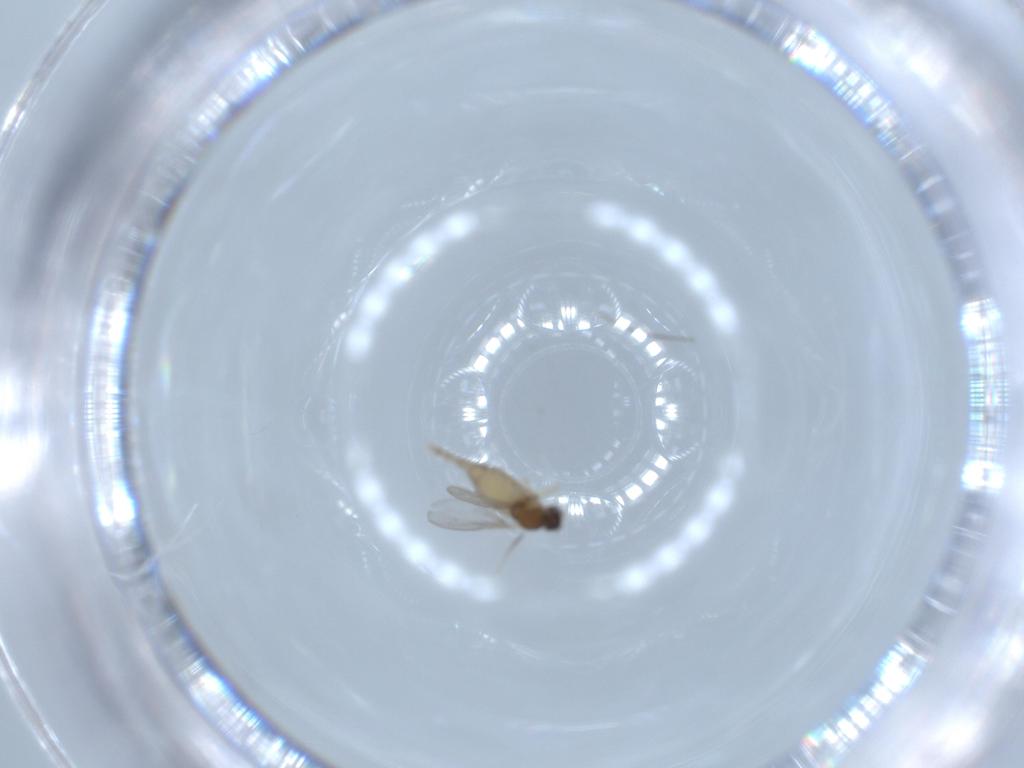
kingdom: Animalia
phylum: Arthropoda
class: Insecta
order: Diptera
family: Cecidomyiidae
